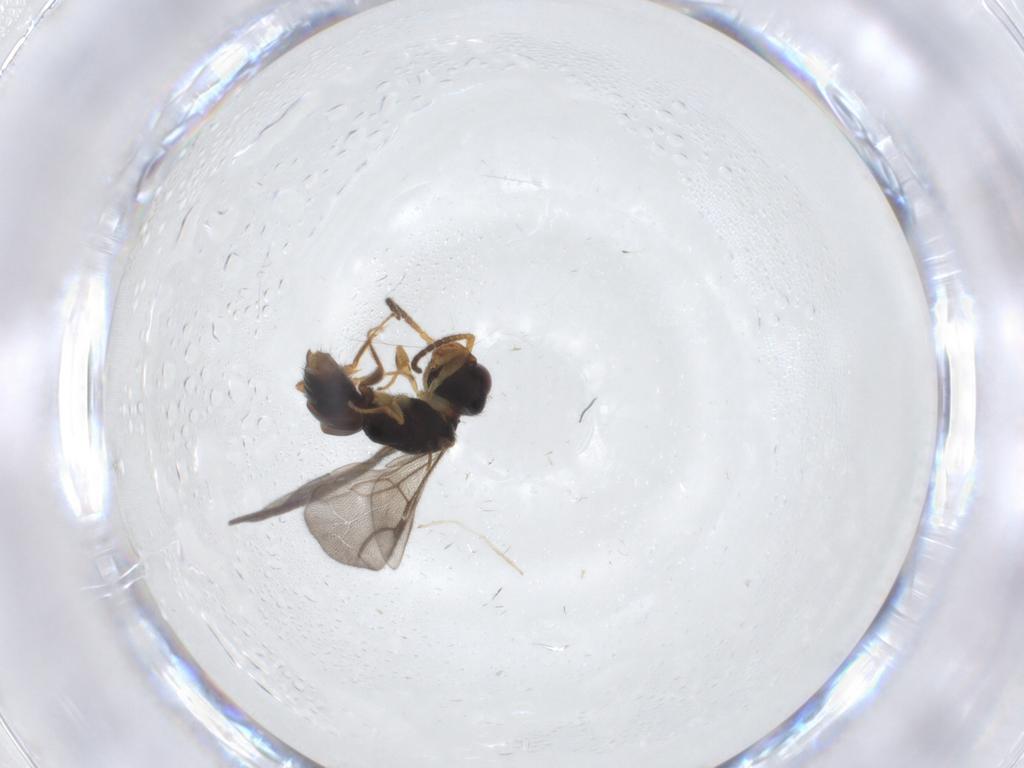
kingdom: Animalia
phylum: Arthropoda
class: Insecta
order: Hymenoptera
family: Bethylidae
